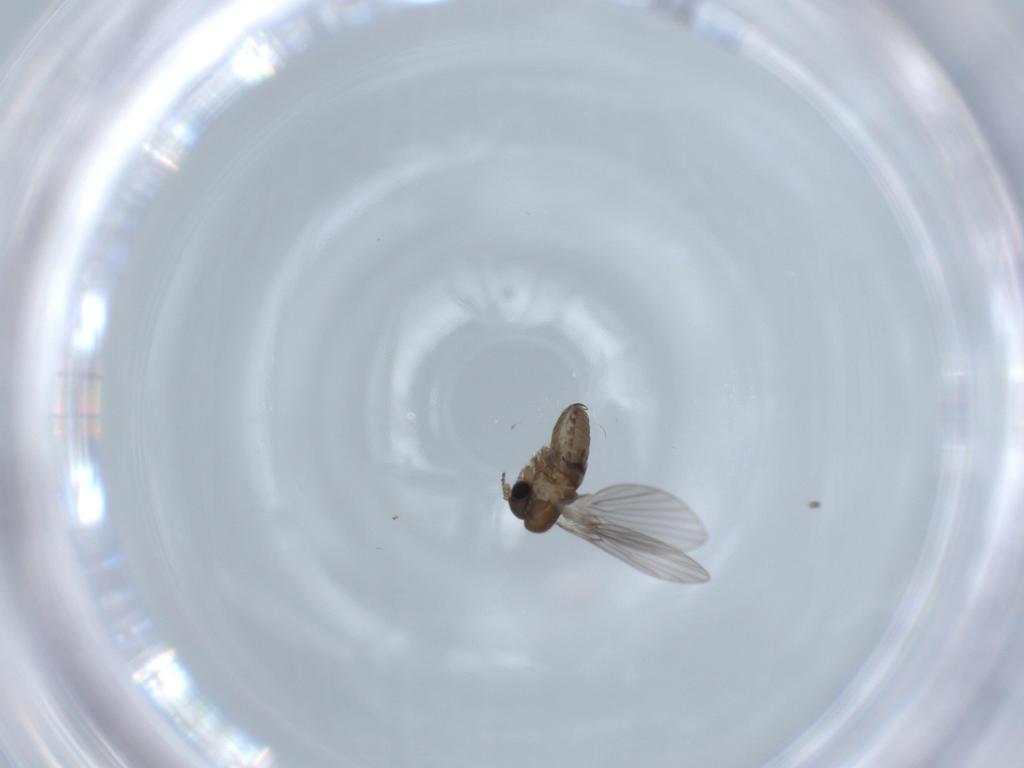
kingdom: Animalia
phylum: Arthropoda
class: Insecta
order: Diptera
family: Psychodidae
